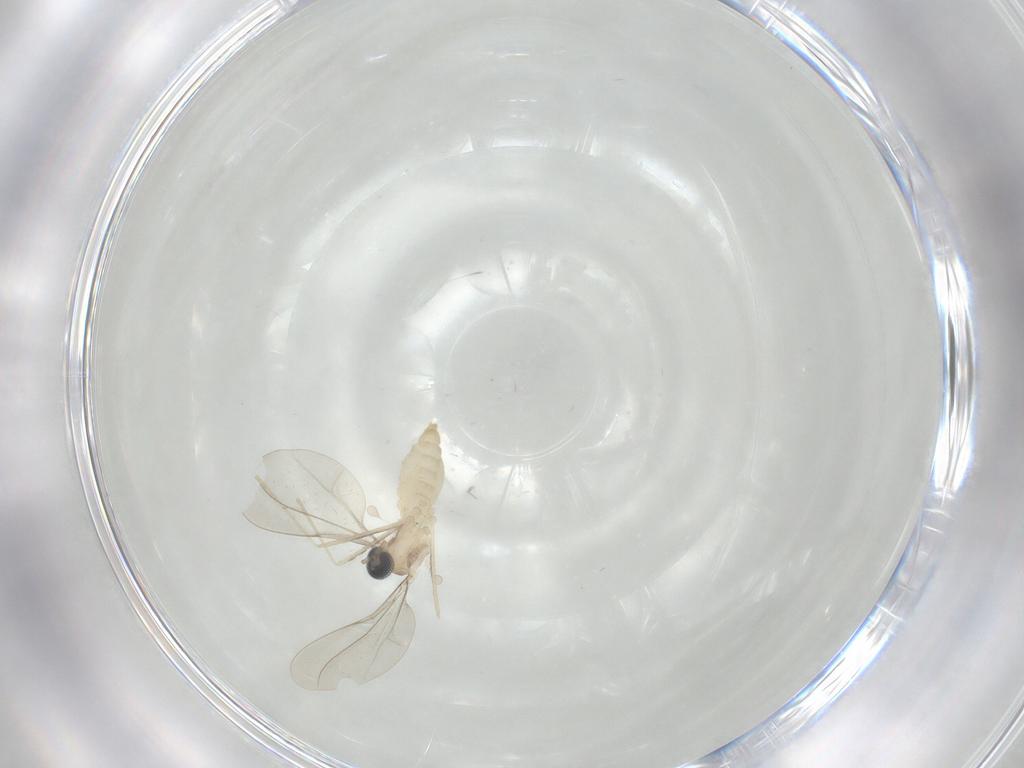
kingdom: Animalia
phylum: Arthropoda
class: Insecta
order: Diptera
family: Cecidomyiidae
